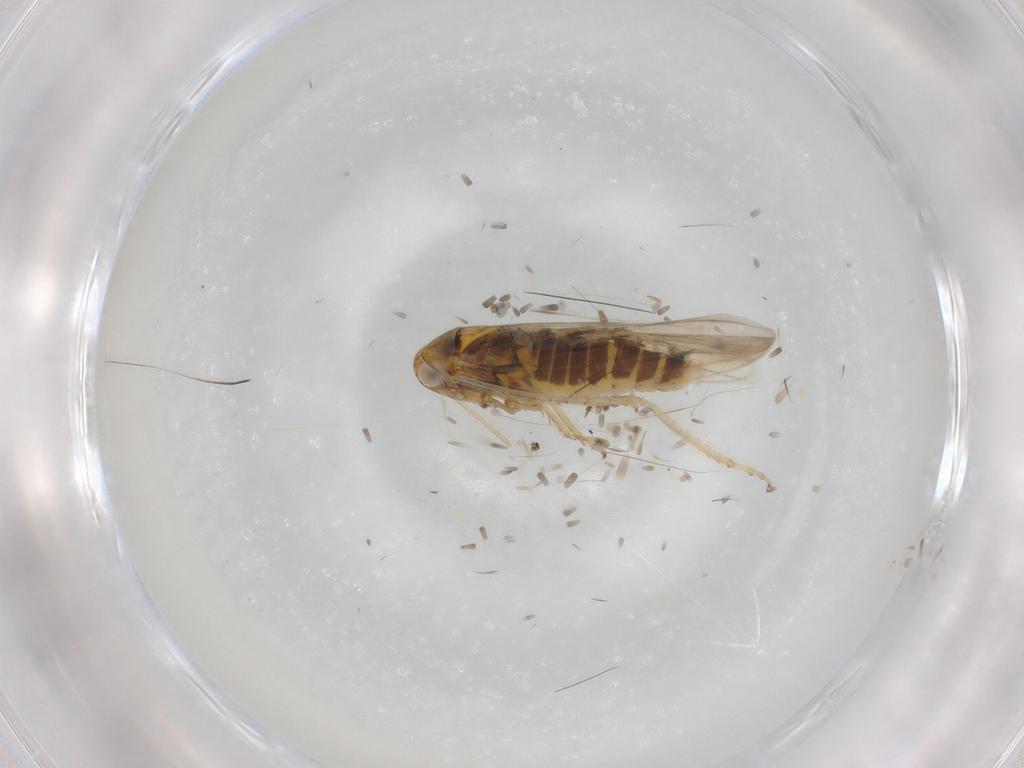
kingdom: Animalia
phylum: Arthropoda
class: Insecta
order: Hemiptera
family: Cicadellidae
